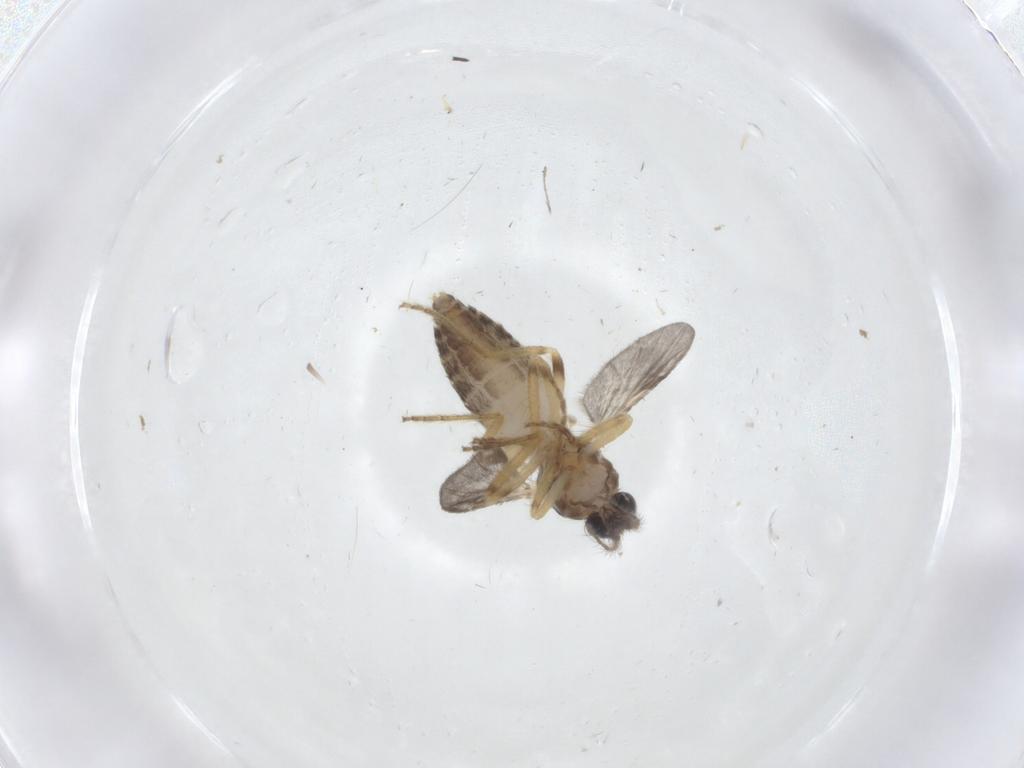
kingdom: Animalia
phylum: Arthropoda
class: Insecta
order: Diptera
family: Ceratopogonidae
